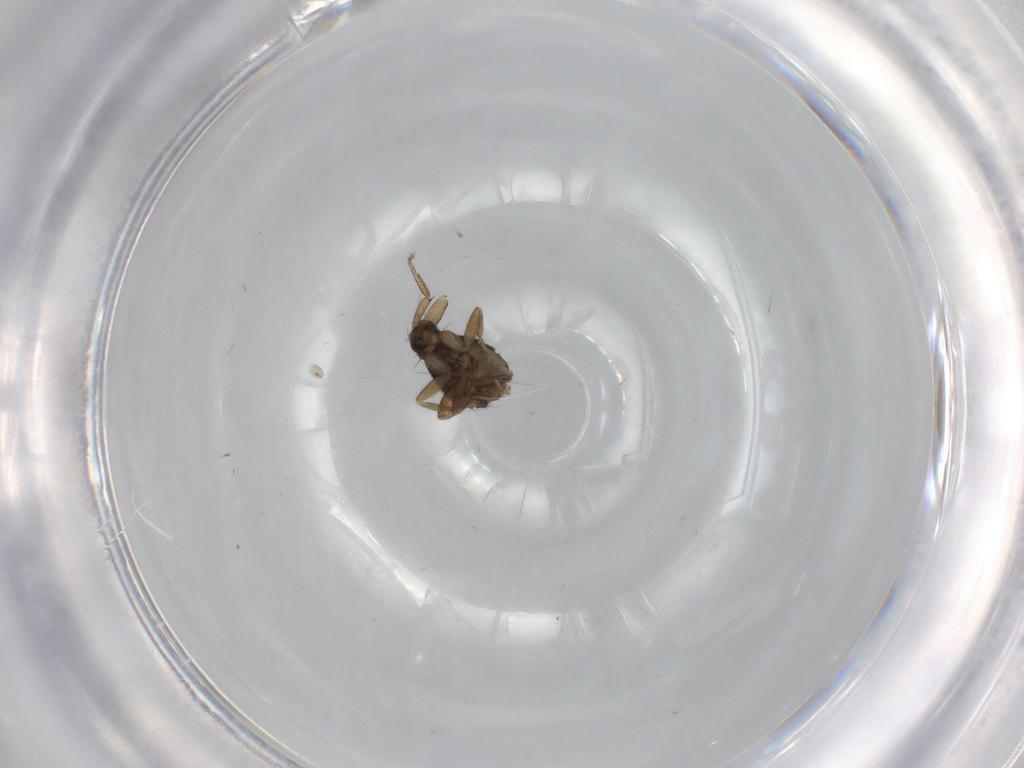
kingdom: Animalia
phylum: Arthropoda
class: Insecta
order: Diptera
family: Phoridae
